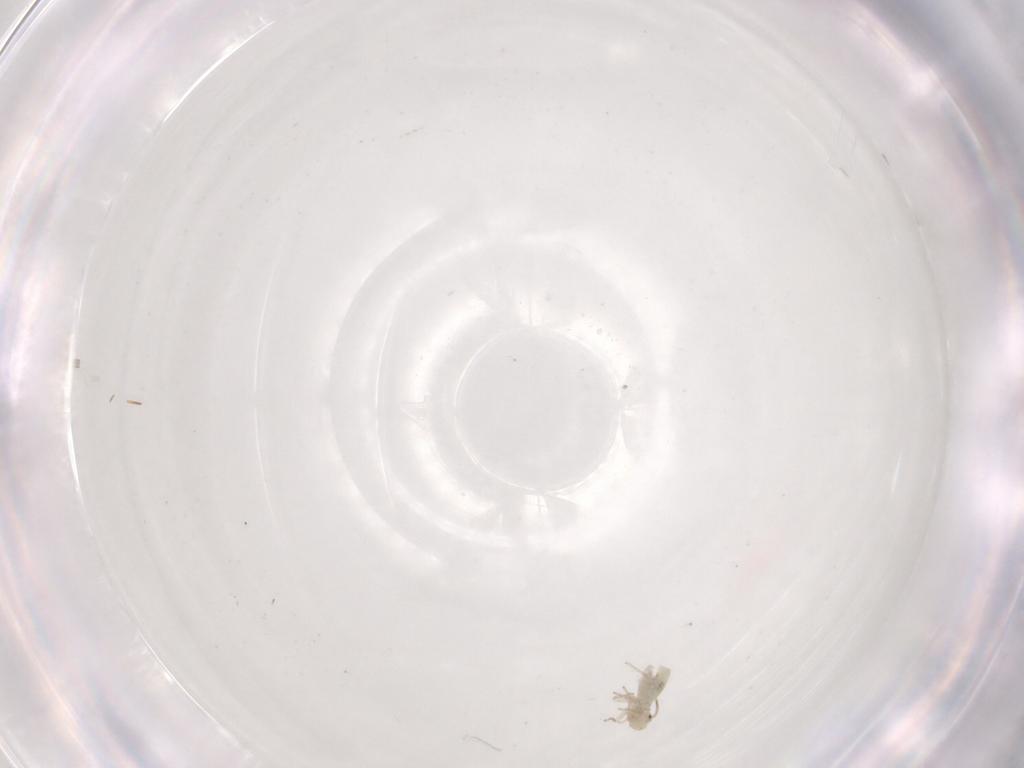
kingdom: Animalia
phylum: Arthropoda
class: Insecta
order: Psocodea
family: Caeciliusidae
